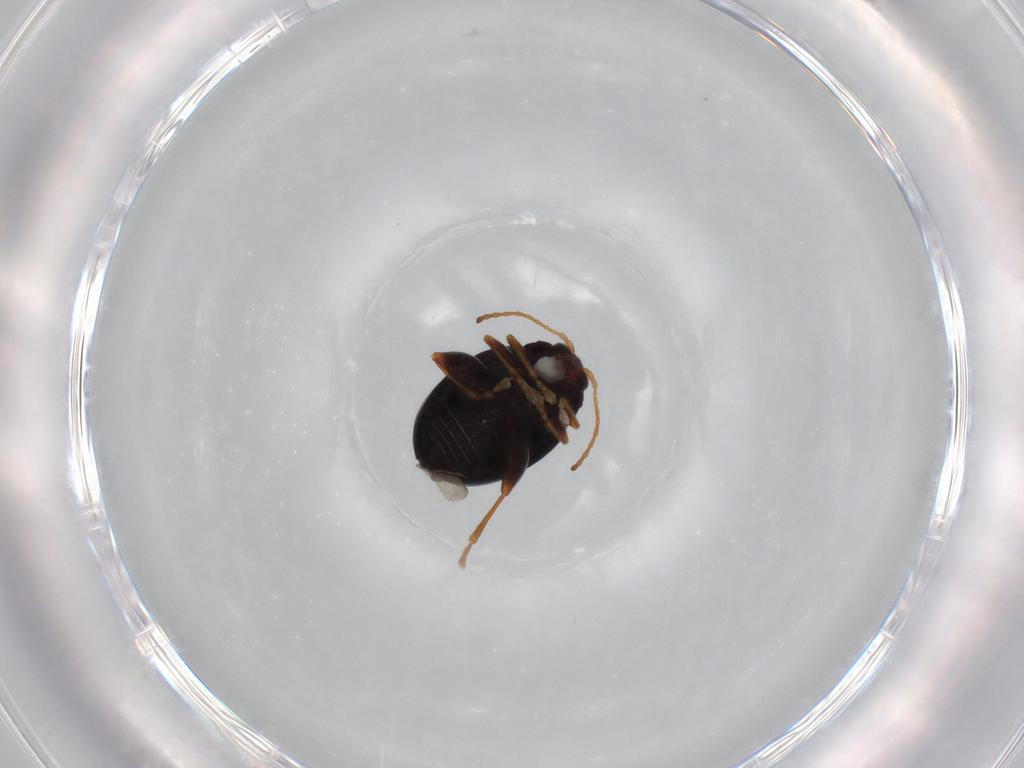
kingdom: Animalia
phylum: Arthropoda
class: Insecta
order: Coleoptera
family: Chrysomelidae
